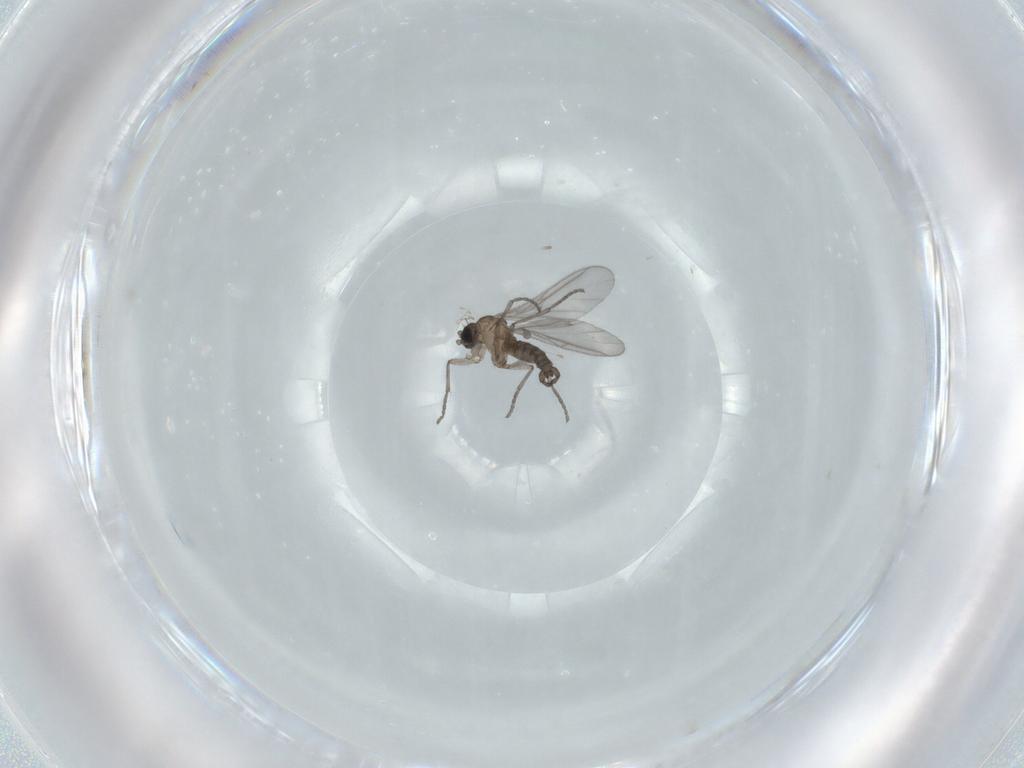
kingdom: Animalia
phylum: Arthropoda
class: Insecta
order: Diptera
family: Sciaridae
